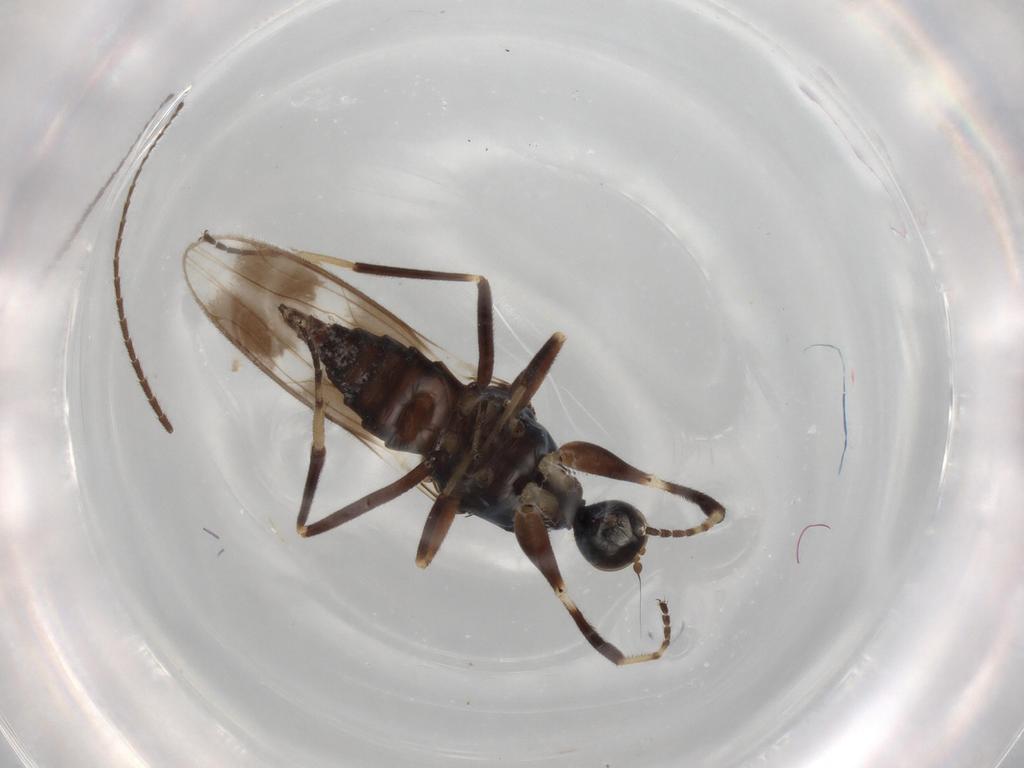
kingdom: Animalia
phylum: Arthropoda
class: Insecta
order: Diptera
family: Hybotidae
